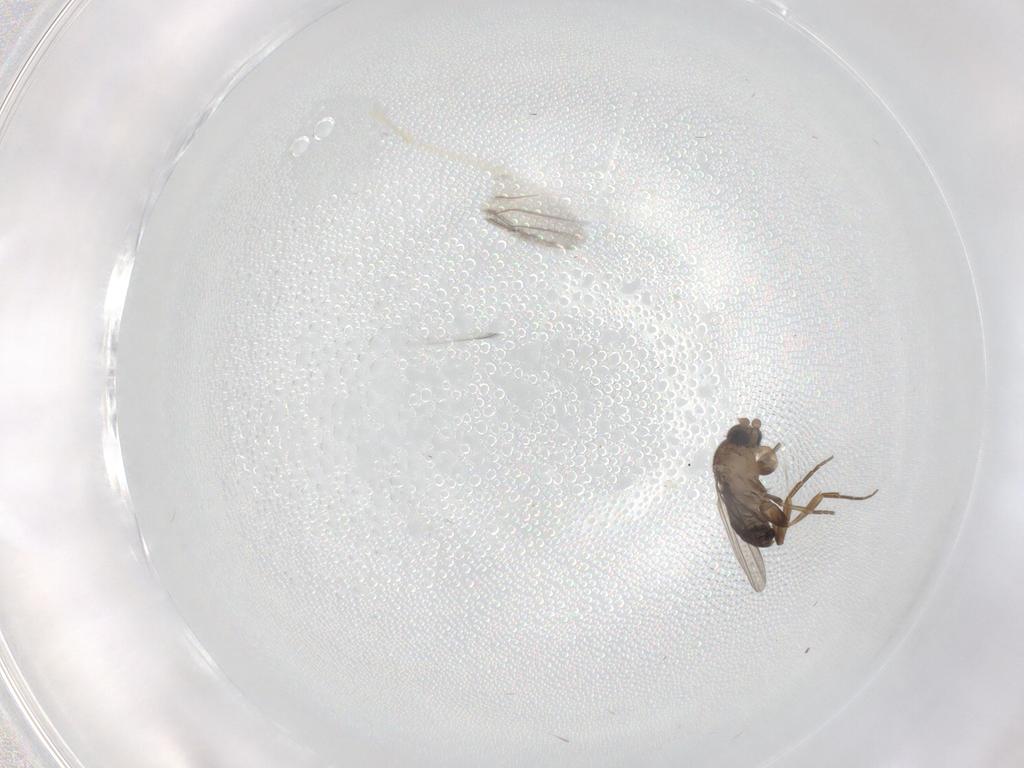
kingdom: Animalia
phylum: Arthropoda
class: Insecta
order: Diptera
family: Phoridae
